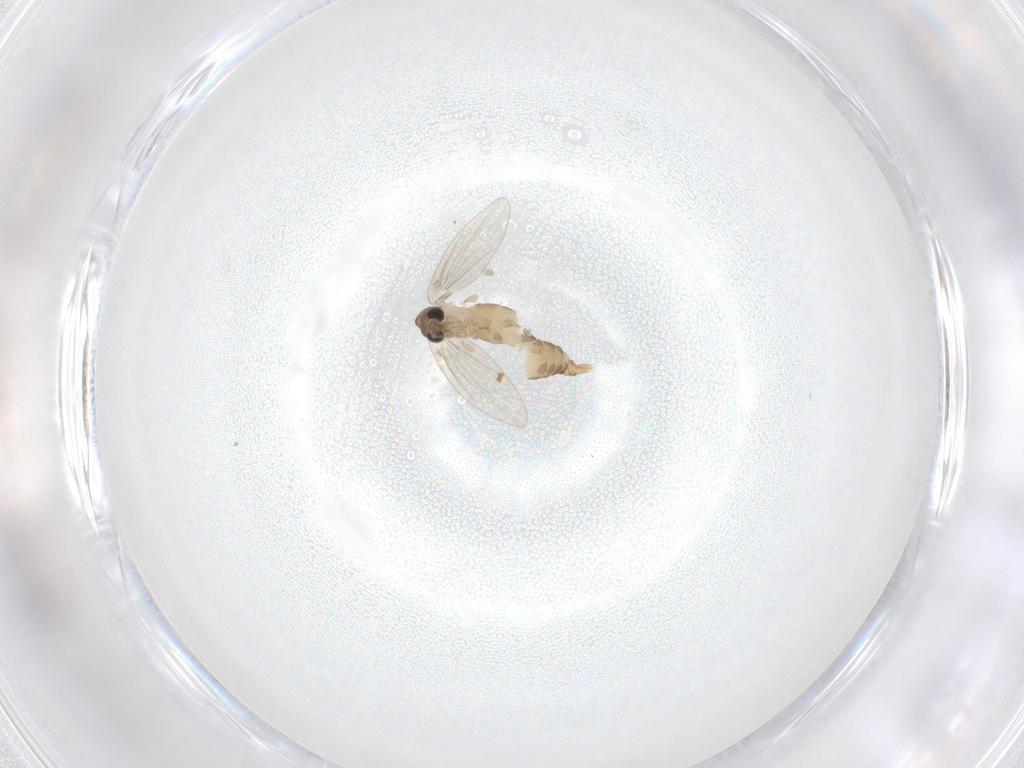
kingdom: Animalia
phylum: Arthropoda
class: Insecta
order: Diptera
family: Psychodidae
